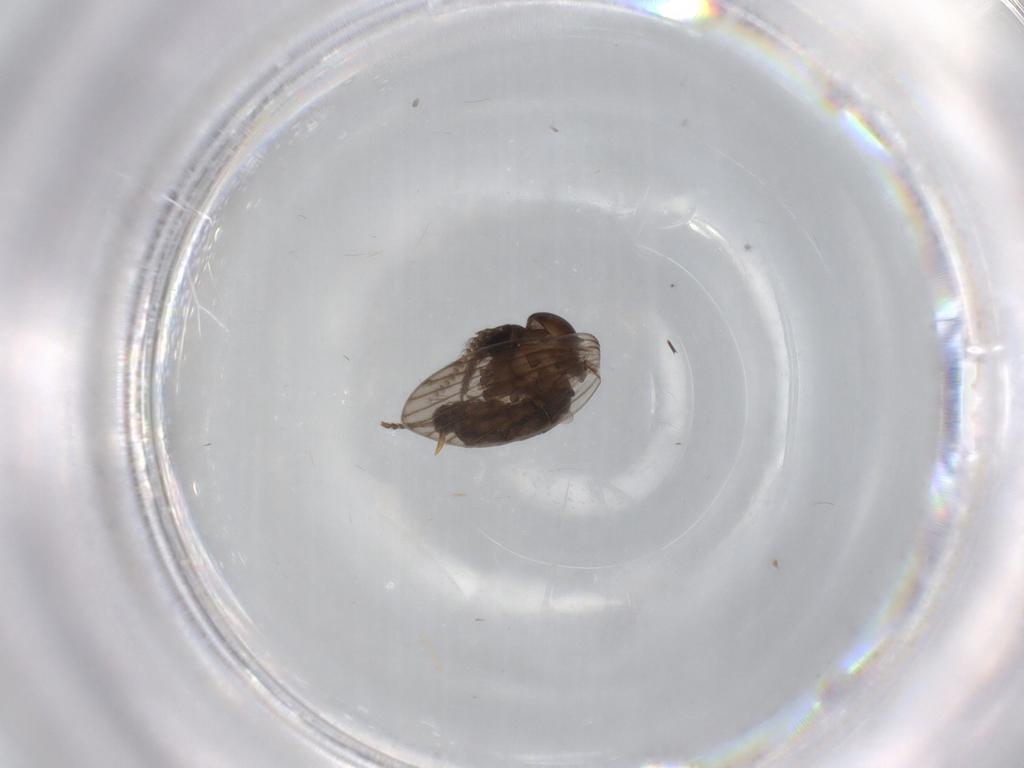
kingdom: Animalia
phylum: Arthropoda
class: Insecta
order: Diptera
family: Psychodidae
